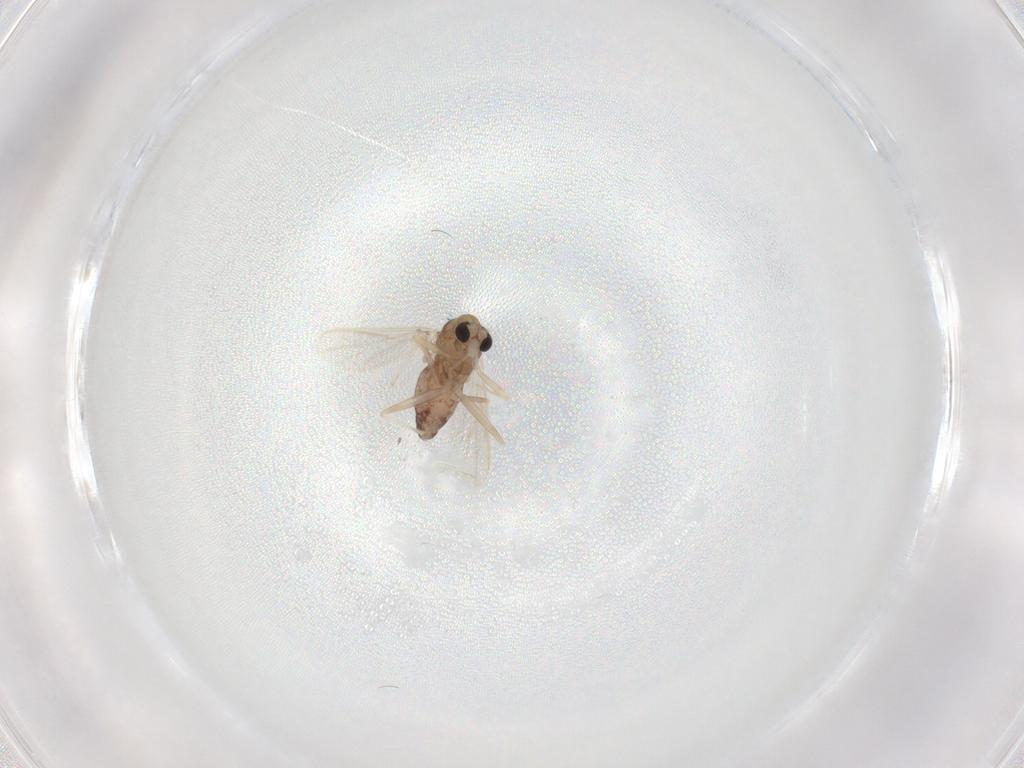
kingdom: Animalia
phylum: Arthropoda
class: Insecta
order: Diptera
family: Chironomidae
